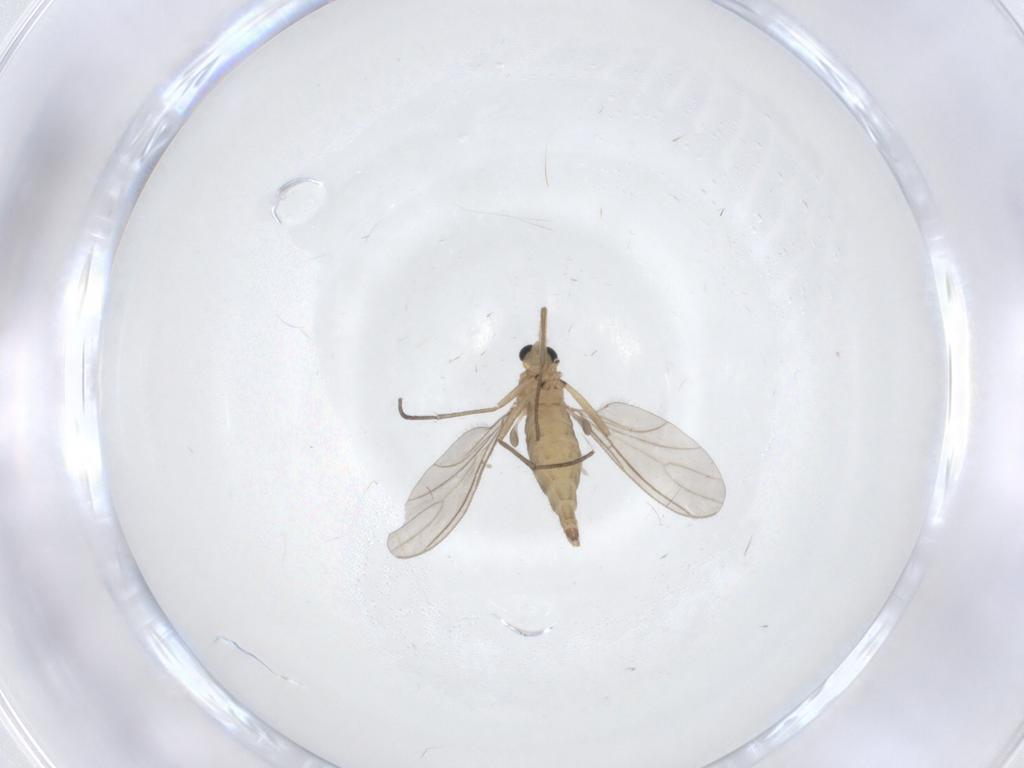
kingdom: Animalia
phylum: Arthropoda
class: Insecta
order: Diptera
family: Sciaridae
